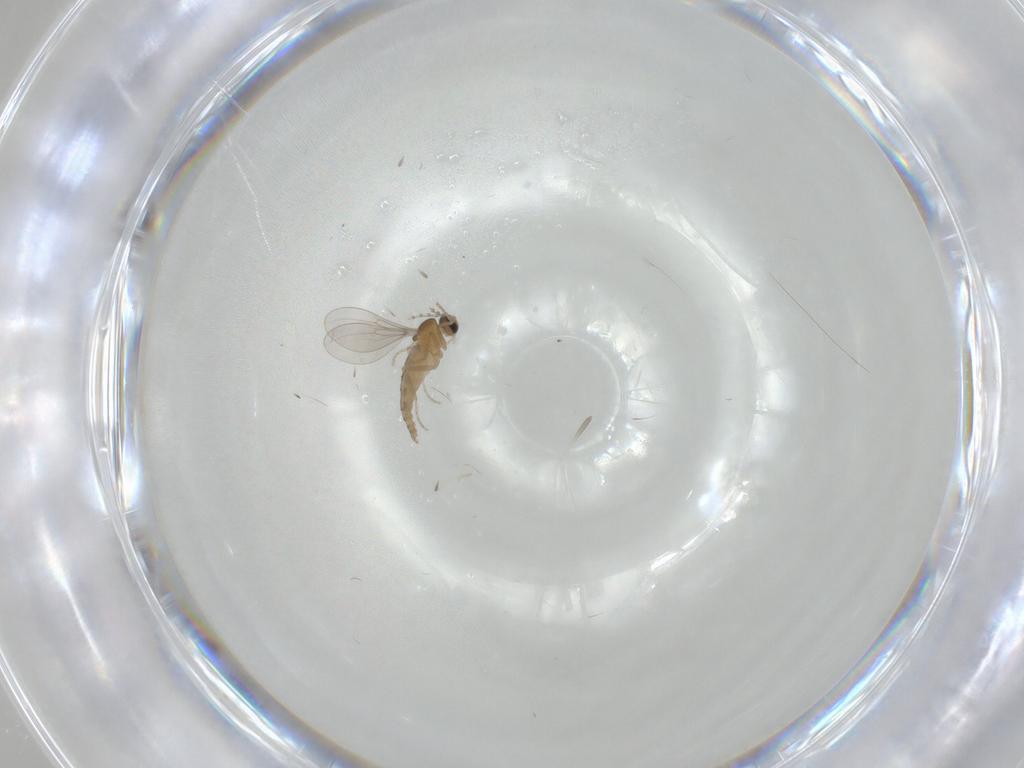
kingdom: Animalia
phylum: Arthropoda
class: Insecta
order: Diptera
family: Cecidomyiidae
